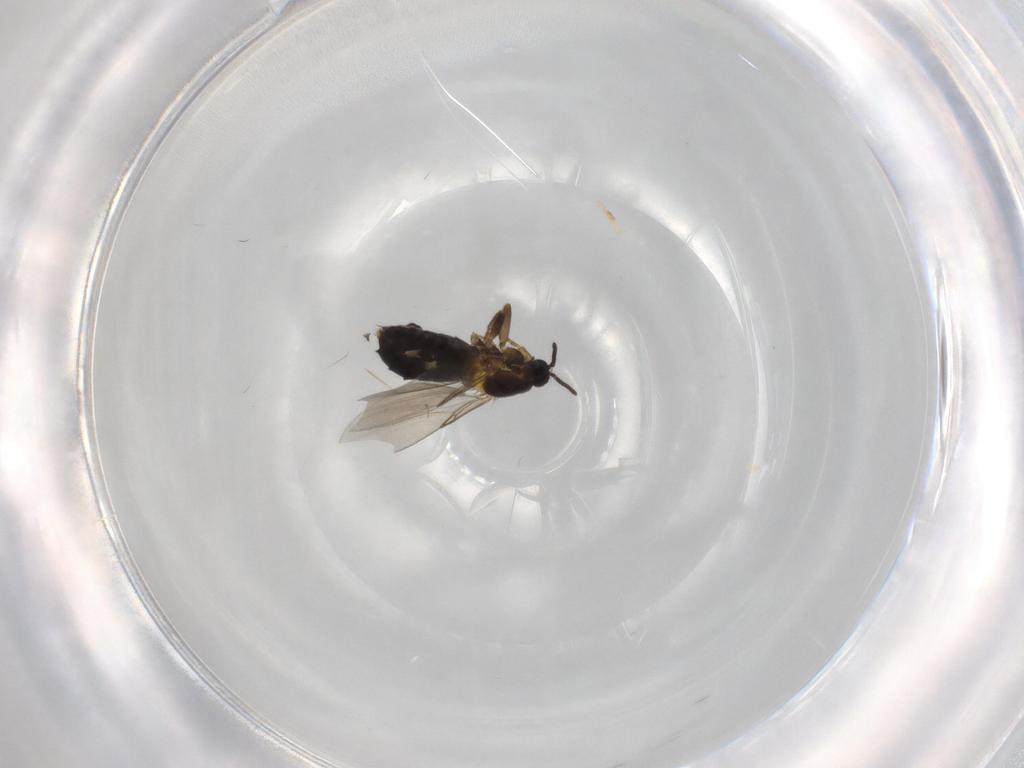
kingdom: Animalia
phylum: Arthropoda
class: Insecta
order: Diptera
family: Scatopsidae
